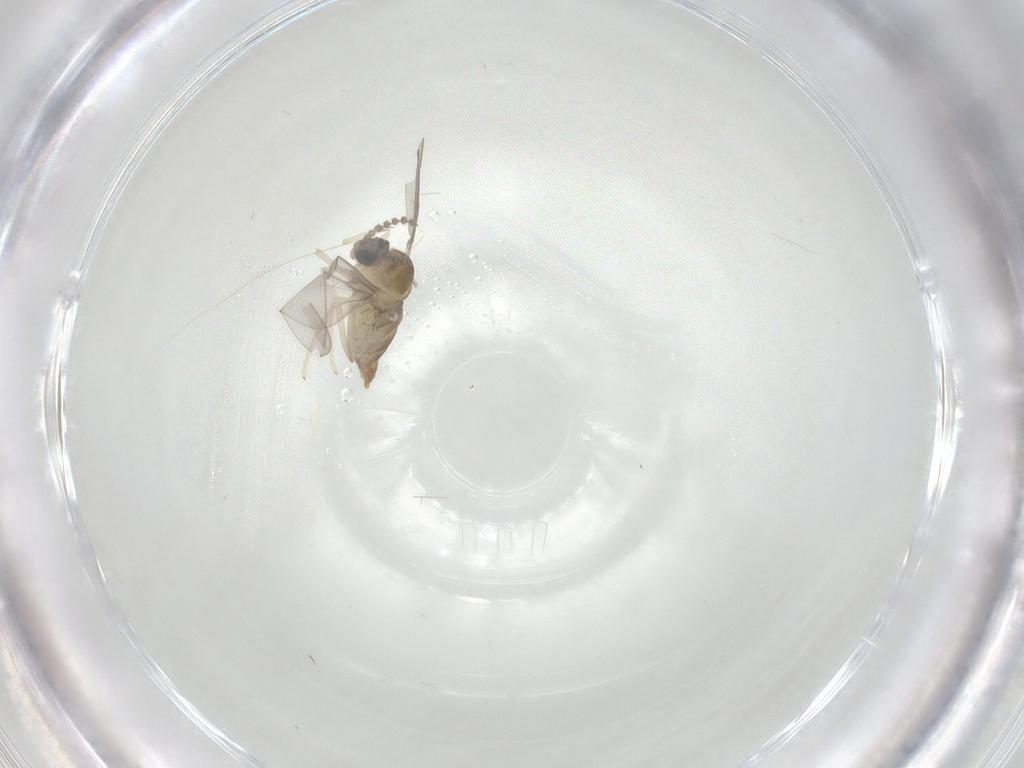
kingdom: Animalia
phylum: Arthropoda
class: Insecta
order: Diptera
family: Cecidomyiidae
